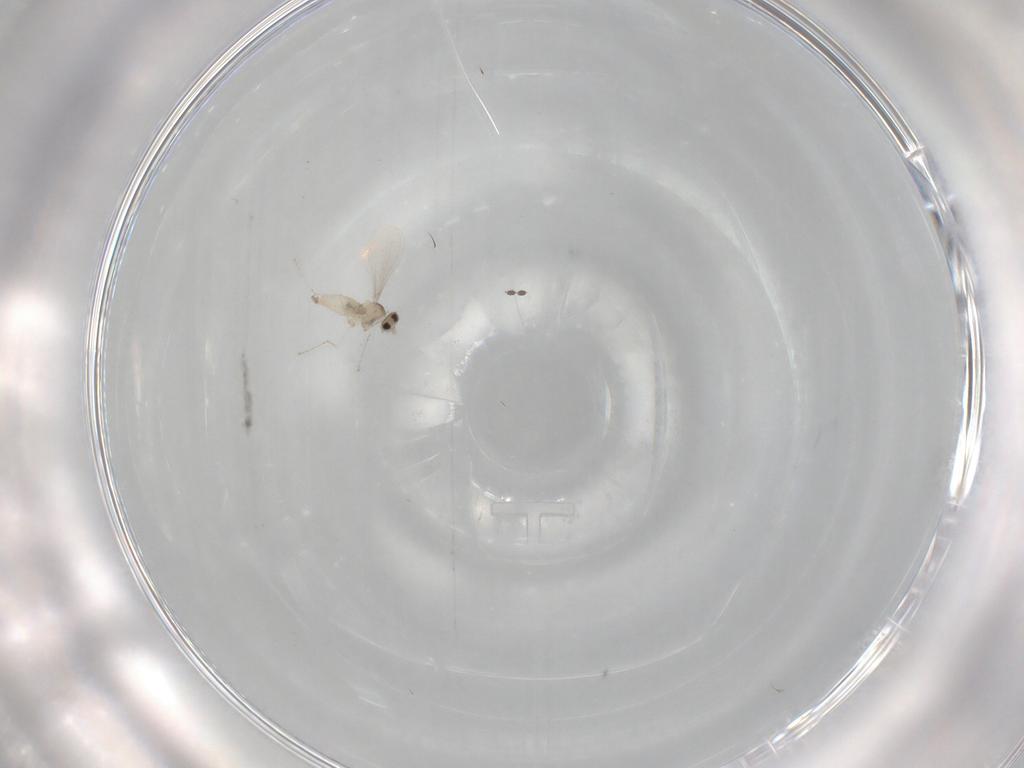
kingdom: Animalia
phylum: Arthropoda
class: Insecta
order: Diptera
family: Cecidomyiidae
